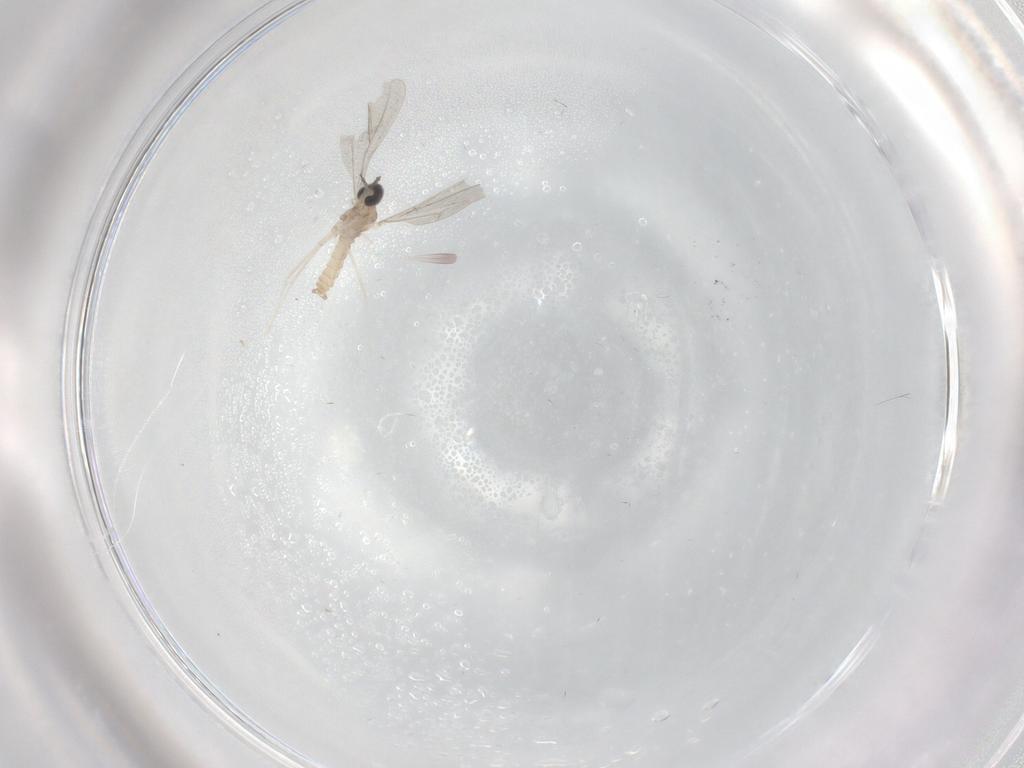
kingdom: Animalia
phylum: Arthropoda
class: Insecta
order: Diptera
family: Cecidomyiidae
